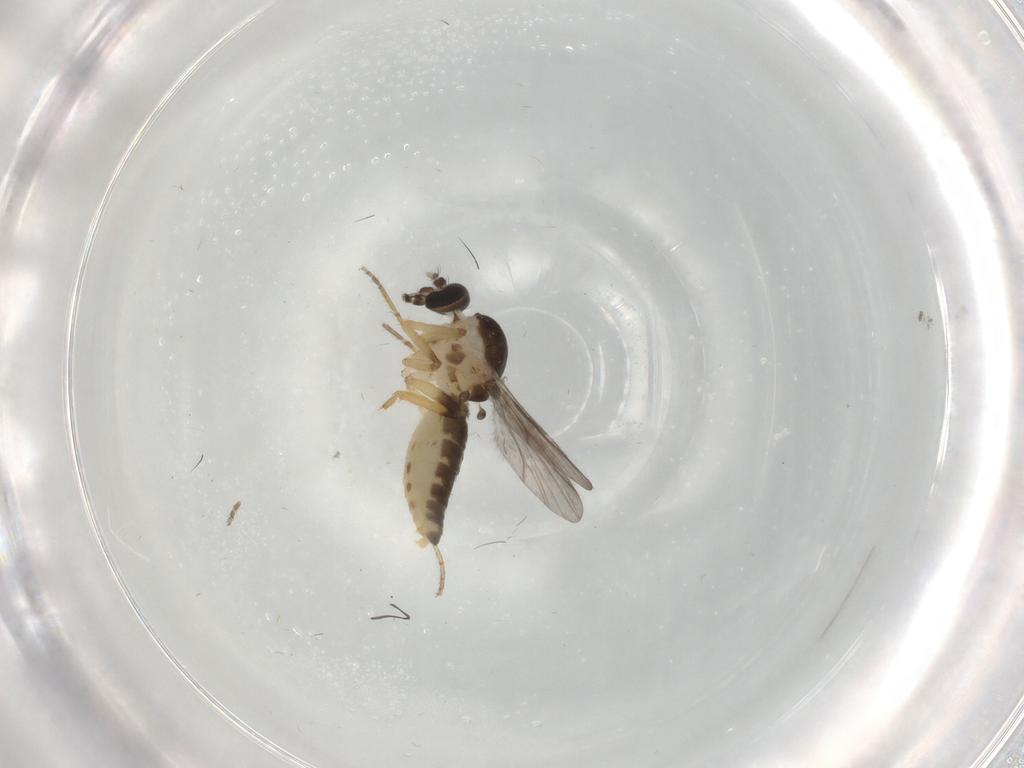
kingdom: Animalia
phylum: Arthropoda
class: Insecta
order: Diptera
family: Limoniidae
